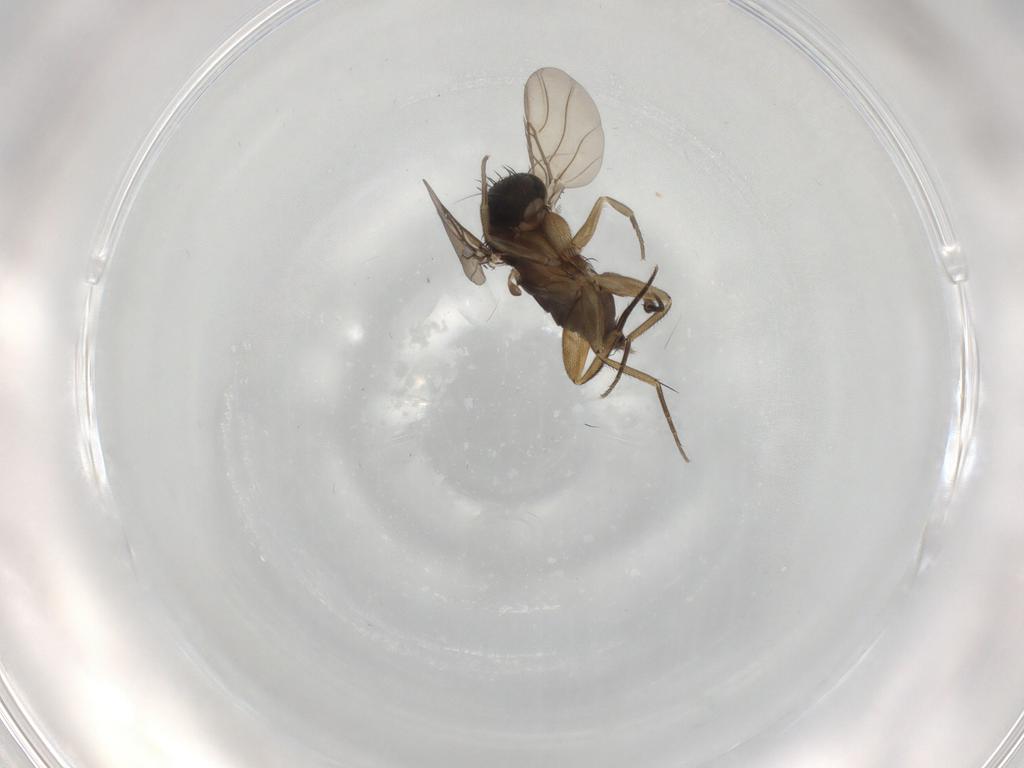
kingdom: Animalia
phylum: Arthropoda
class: Insecta
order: Diptera
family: Phoridae
